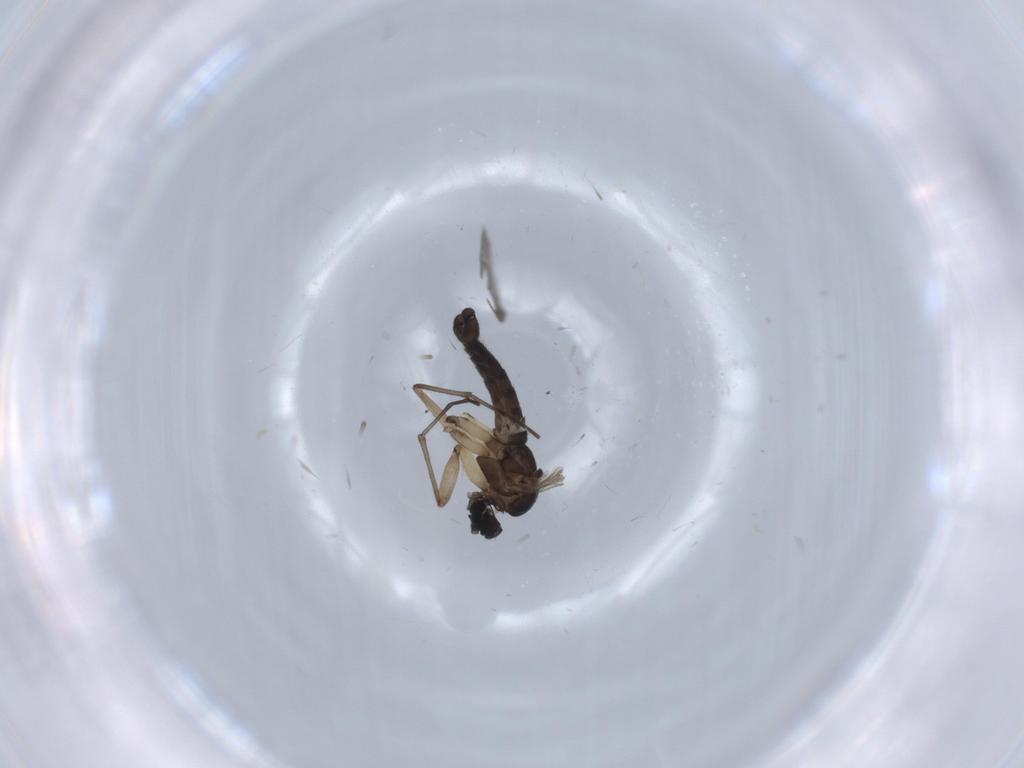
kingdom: Animalia
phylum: Arthropoda
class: Insecta
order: Diptera
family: Sciaridae
